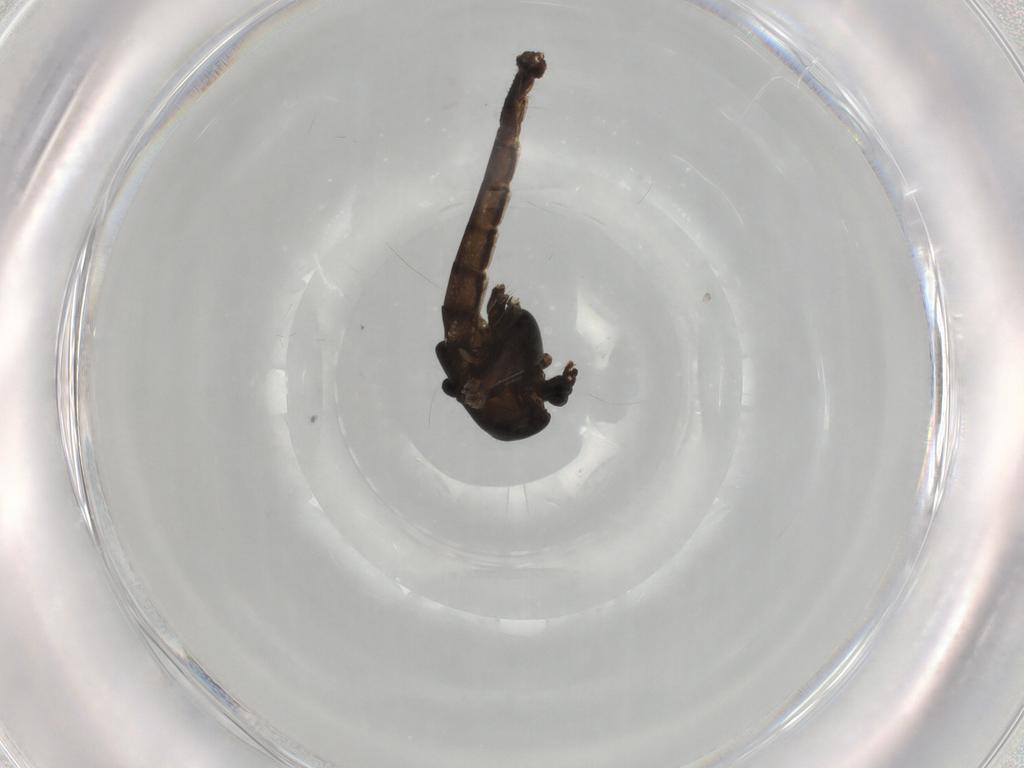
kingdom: Animalia
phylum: Arthropoda
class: Insecta
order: Diptera
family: Chironomidae
